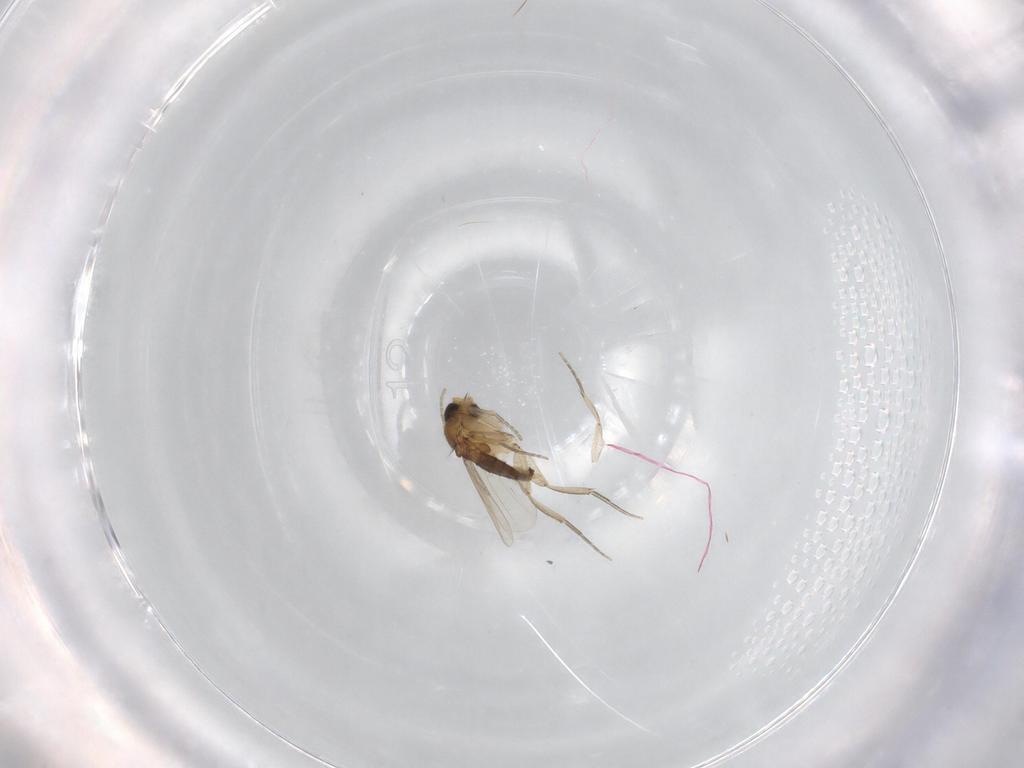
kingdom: Animalia
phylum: Arthropoda
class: Insecta
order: Diptera
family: Phoridae
